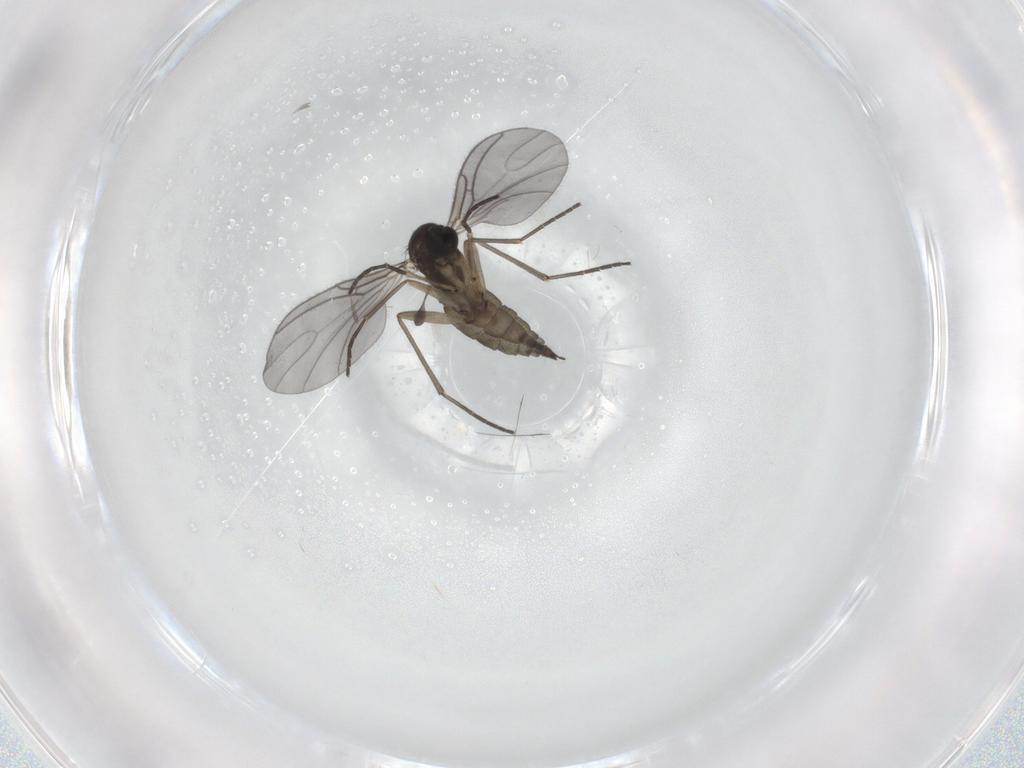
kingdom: Animalia
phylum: Arthropoda
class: Insecta
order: Diptera
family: Sciaridae
